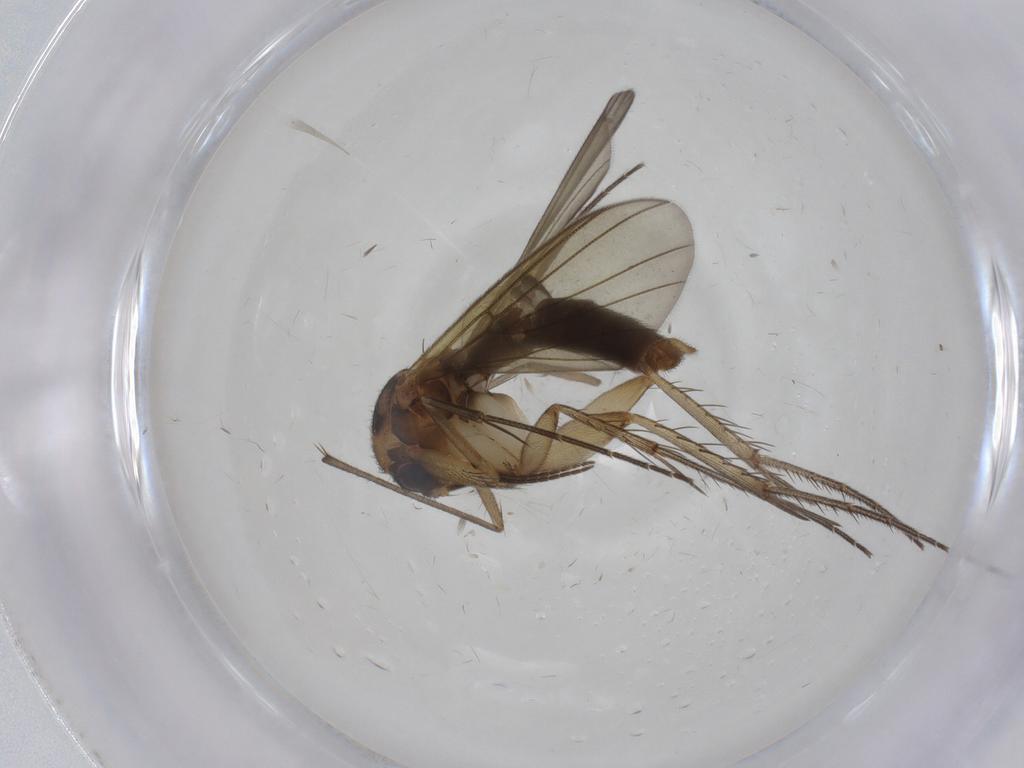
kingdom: Animalia
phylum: Arthropoda
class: Insecta
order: Diptera
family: Mycetophilidae
